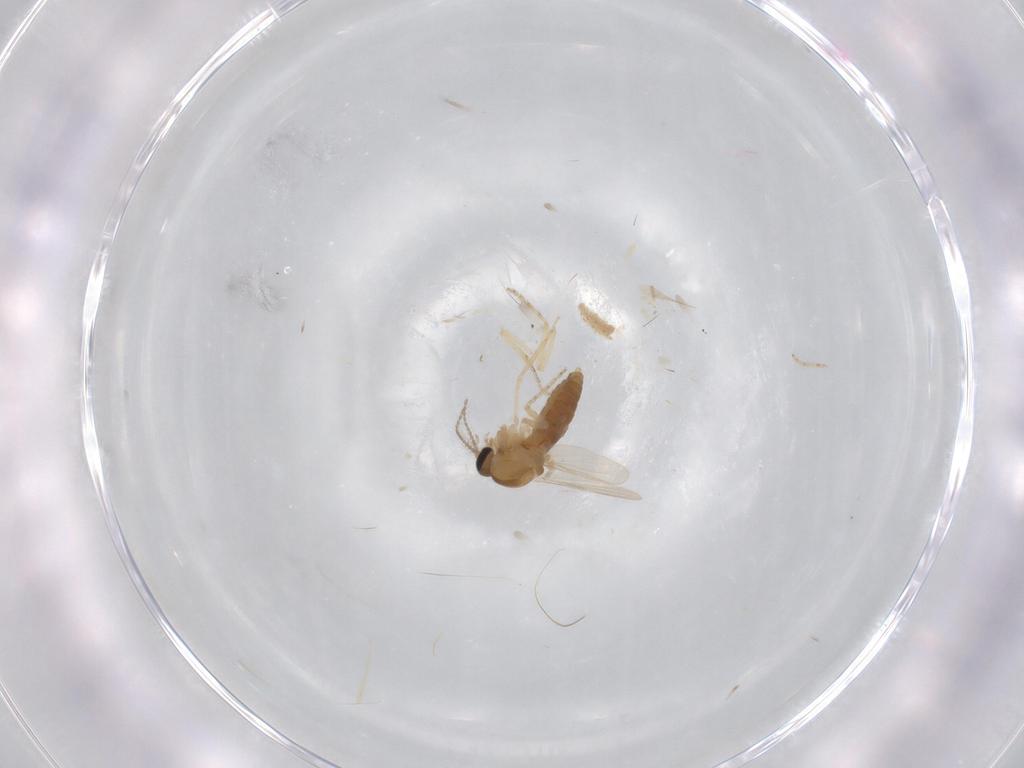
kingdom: Animalia
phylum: Arthropoda
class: Insecta
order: Diptera
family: Ceratopogonidae
